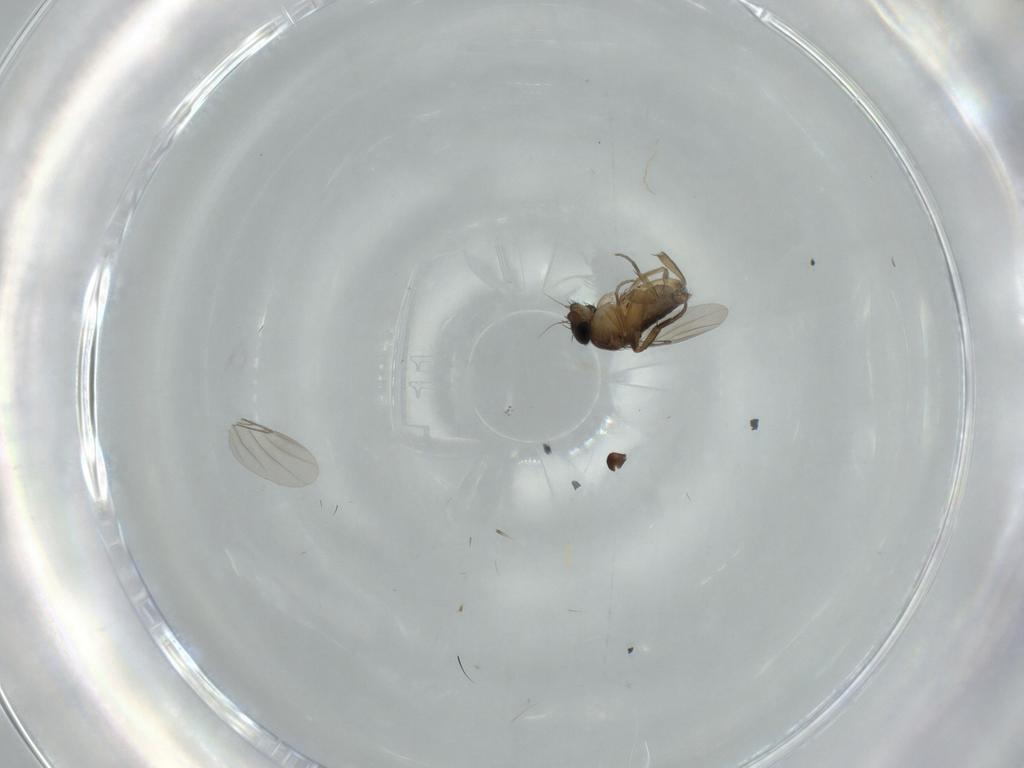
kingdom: Animalia
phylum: Arthropoda
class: Insecta
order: Diptera
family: Phoridae
